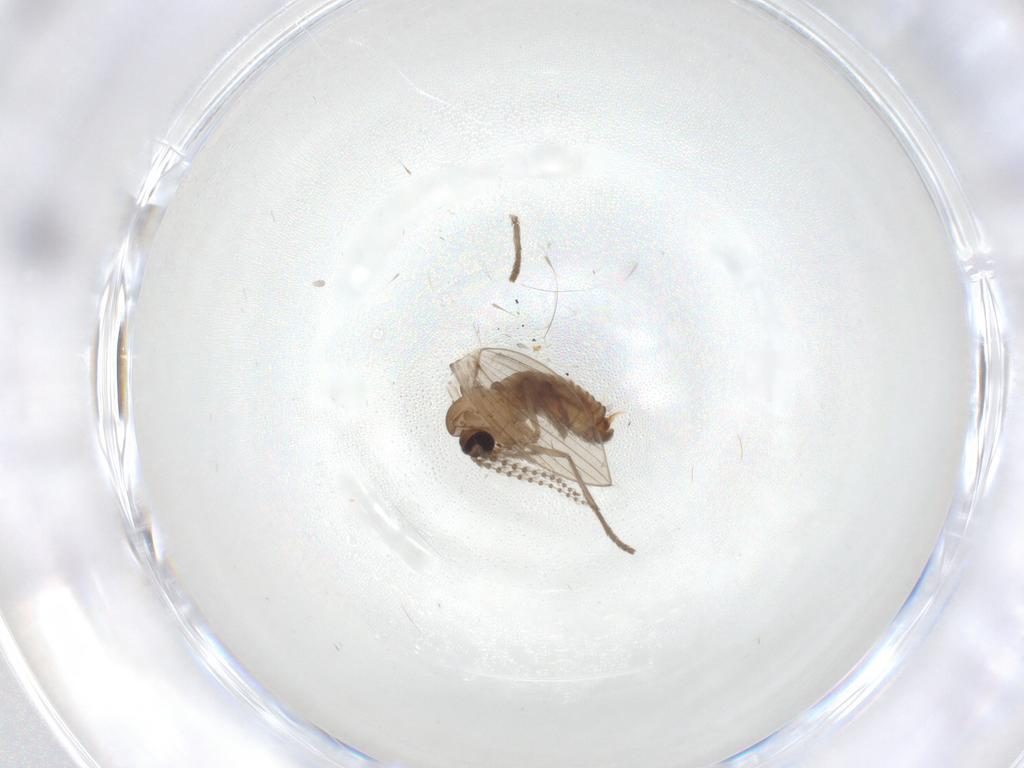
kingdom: Animalia
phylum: Arthropoda
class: Insecta
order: Diptera
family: Psychodidae
